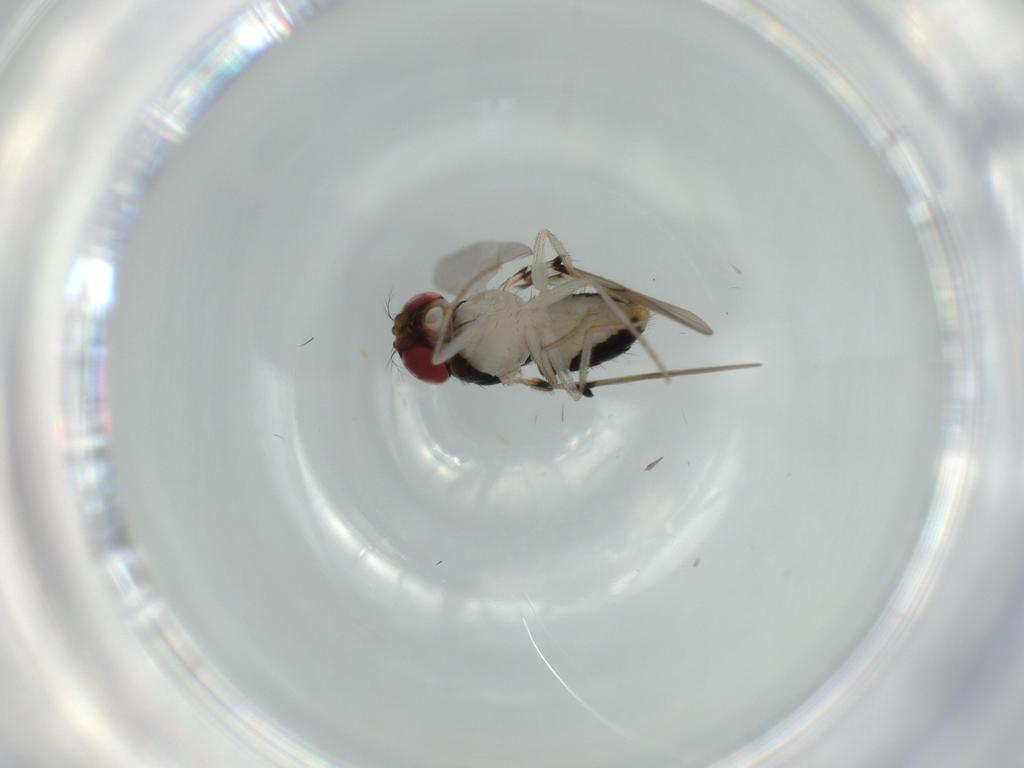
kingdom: Animalia
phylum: Arthropoda
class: Insecta
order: Diptera
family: Drosophilidae
